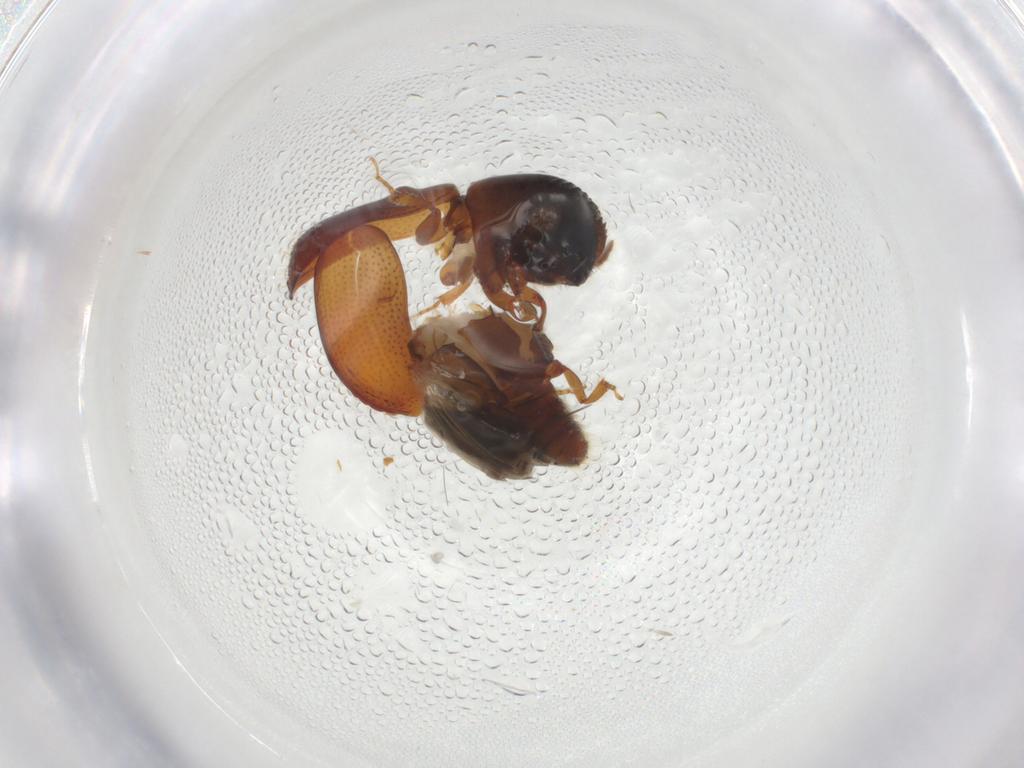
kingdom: Animalia
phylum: Arthropoda
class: Insecta
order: Coleoptera
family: Curculionidae
